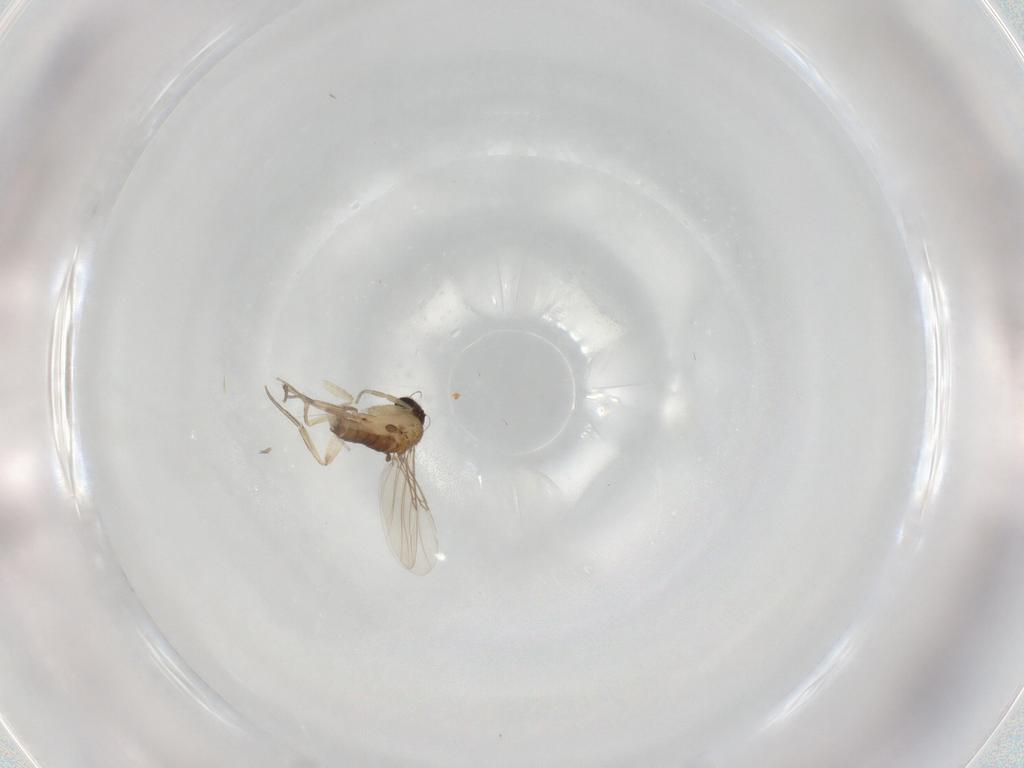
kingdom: Animalia
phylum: Arthropoda
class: Insecta
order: Diptera
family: Phoridae
